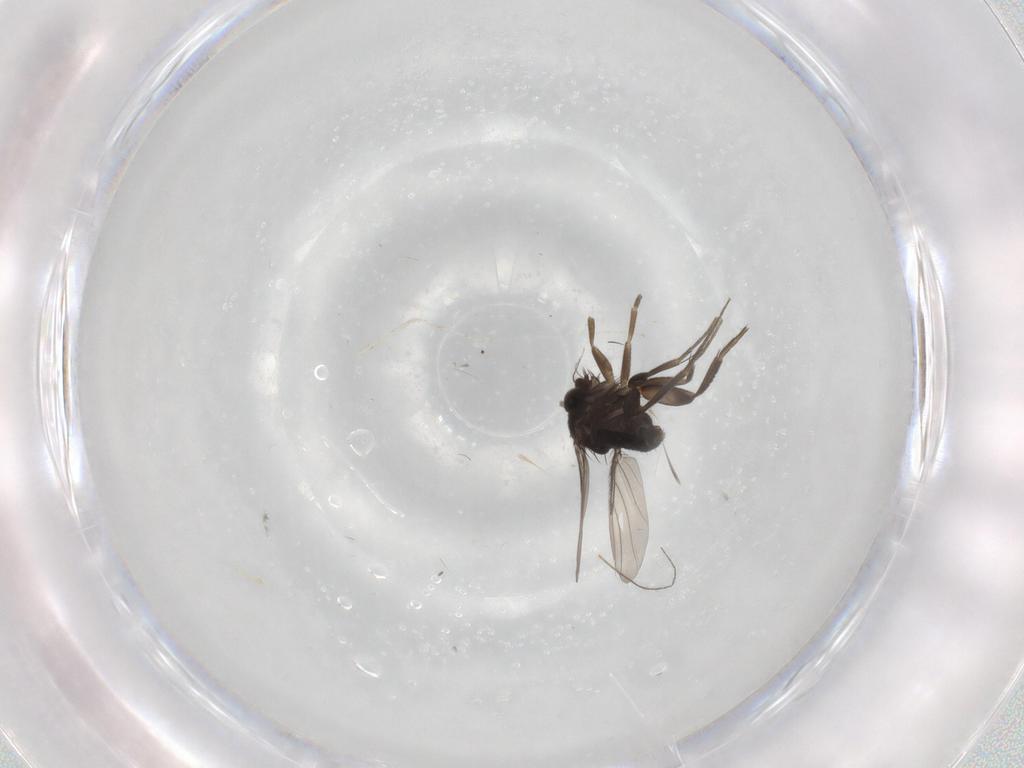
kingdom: Animalia
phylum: Arthropoda
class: Insecta
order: Diptera
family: Cecidomyiidae
